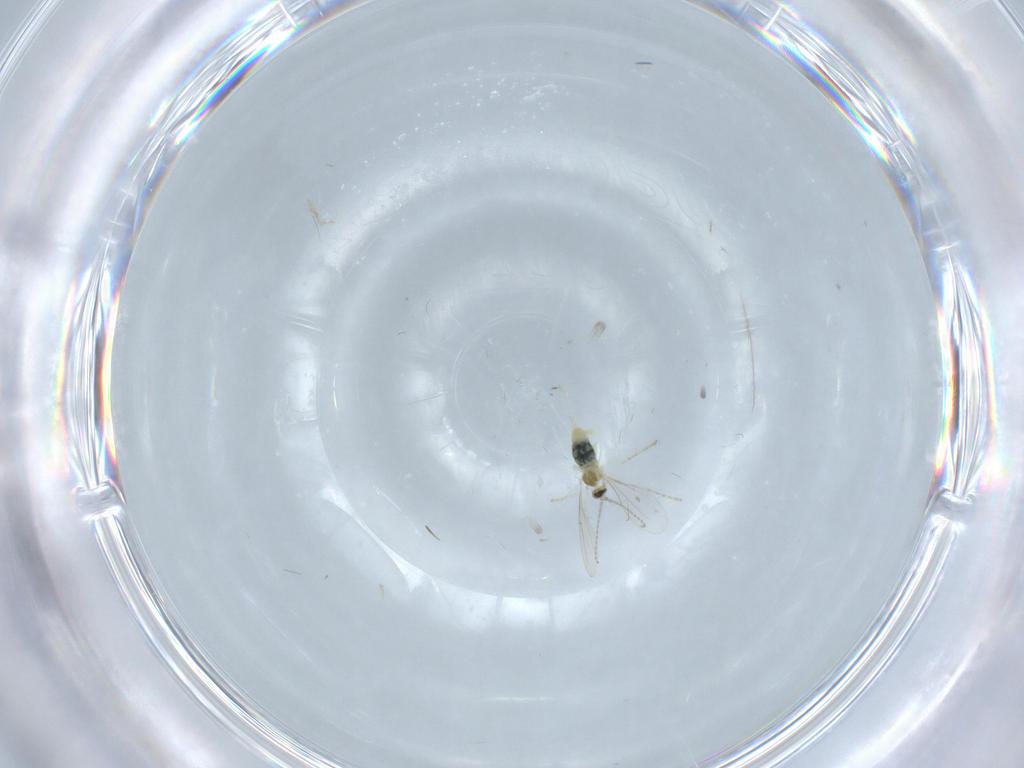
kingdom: Animalia
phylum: Arthropoda
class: Insecta
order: Diptera
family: Cecidomyiidae
